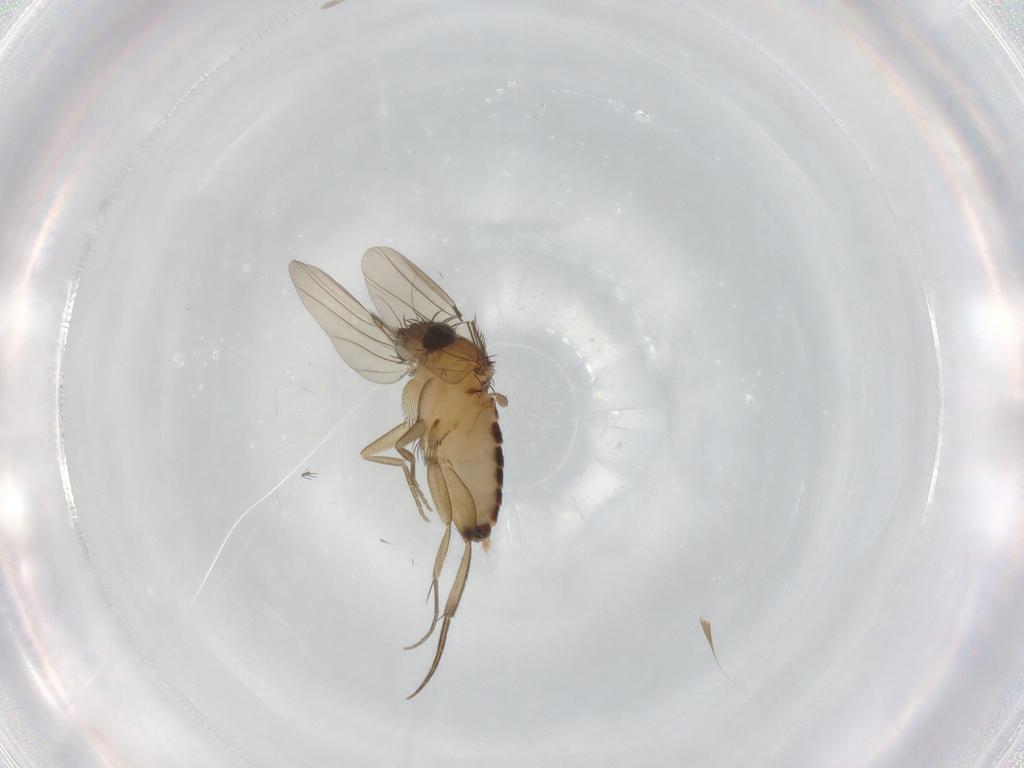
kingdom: Animalia
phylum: Arthropoda
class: Insecta
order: Diptera
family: Phoridae
